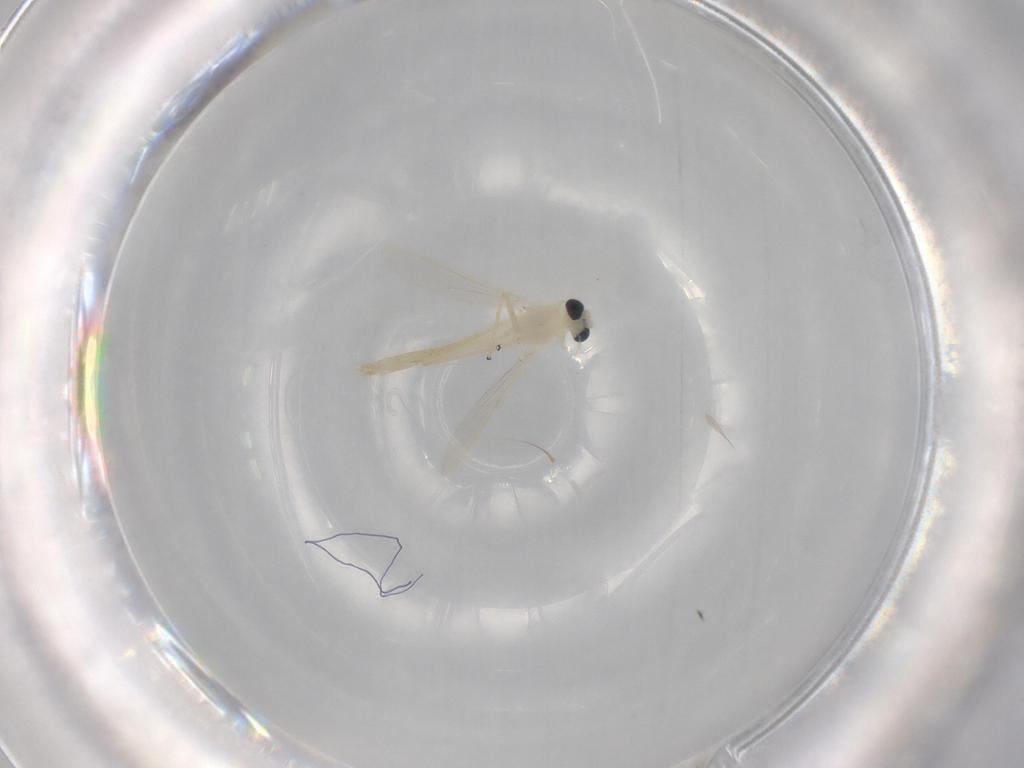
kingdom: Animalia
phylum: Arthropoda
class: Insecta
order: Diptera
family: Chironomidae
